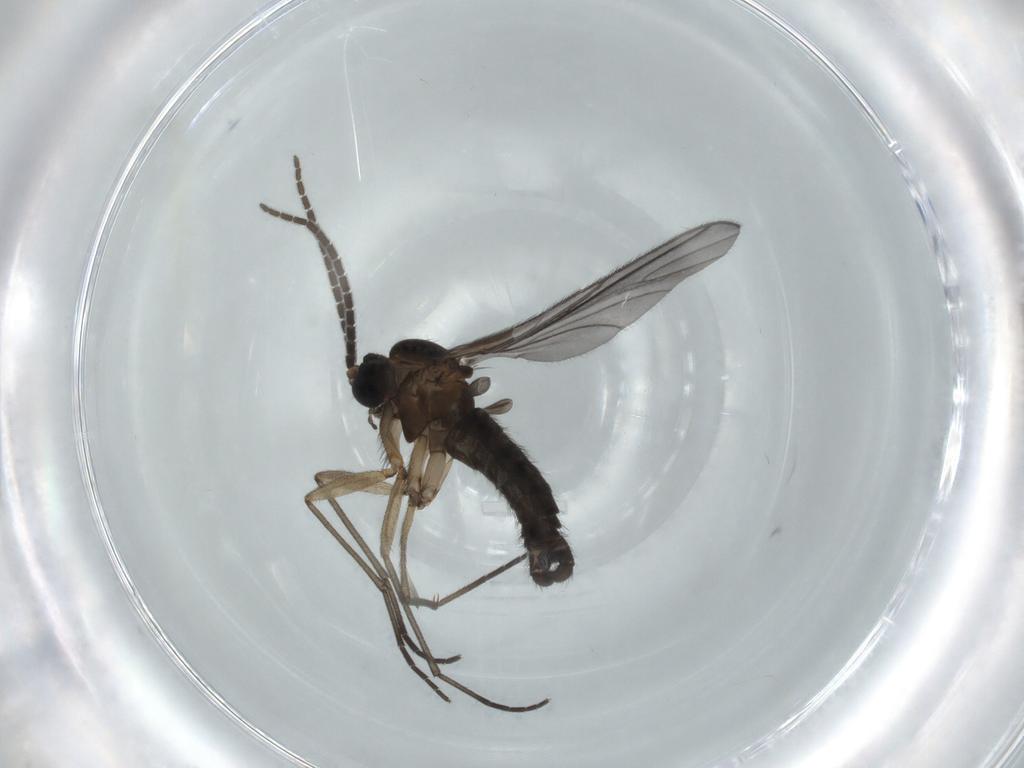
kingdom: Animalia
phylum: Arthropoda
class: Insecta
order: Diptera
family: Sciaridae
